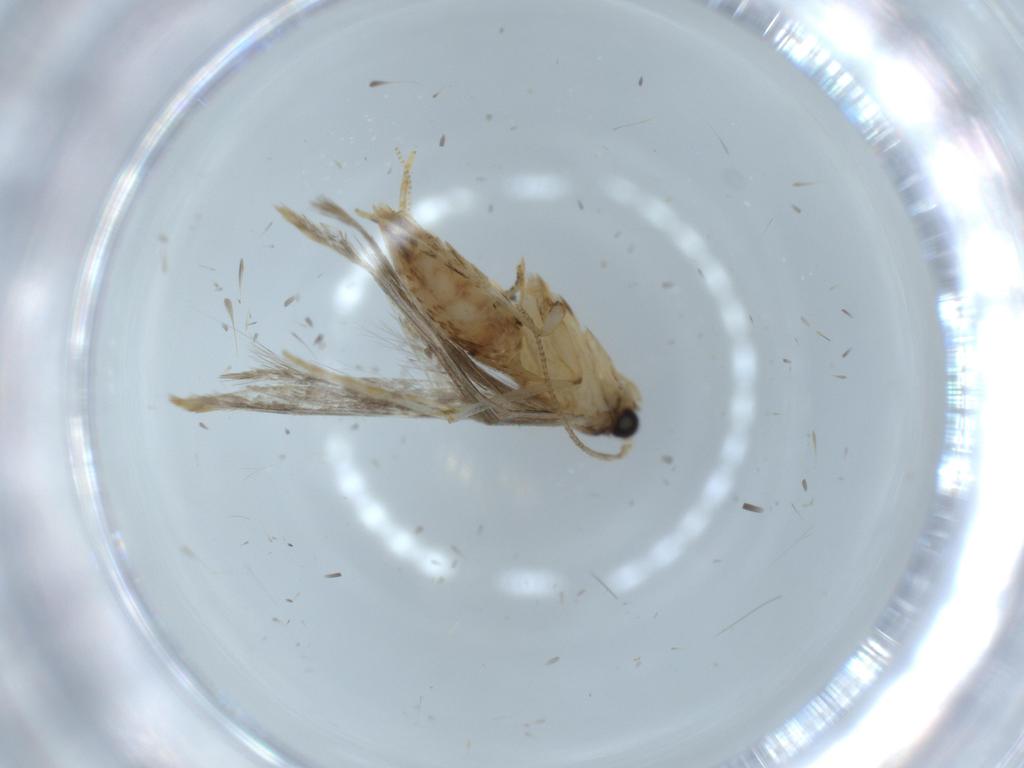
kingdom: Animalia
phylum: Arthropoda
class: Insecta
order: Lepidoptera
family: Tineidae
